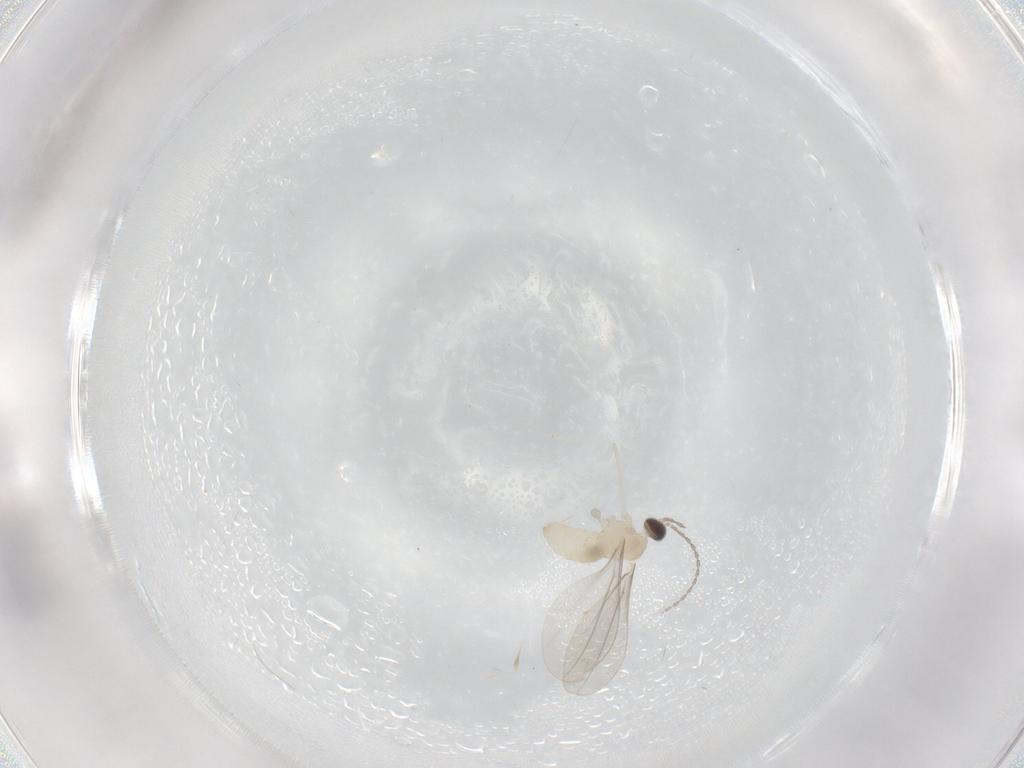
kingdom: Animalia
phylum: Arthropoda
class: Insecta
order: Diptera
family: Cecidomyiidae
